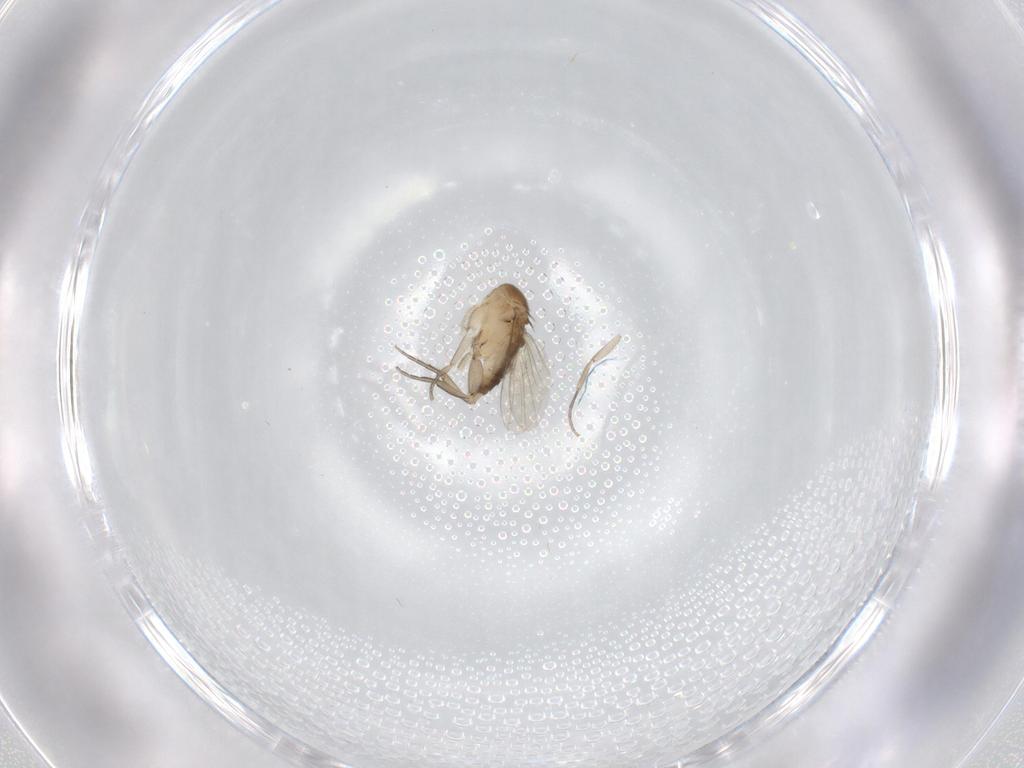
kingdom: Animalia
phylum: Arthropoda
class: Insecta
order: Diptera
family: Phoridae
